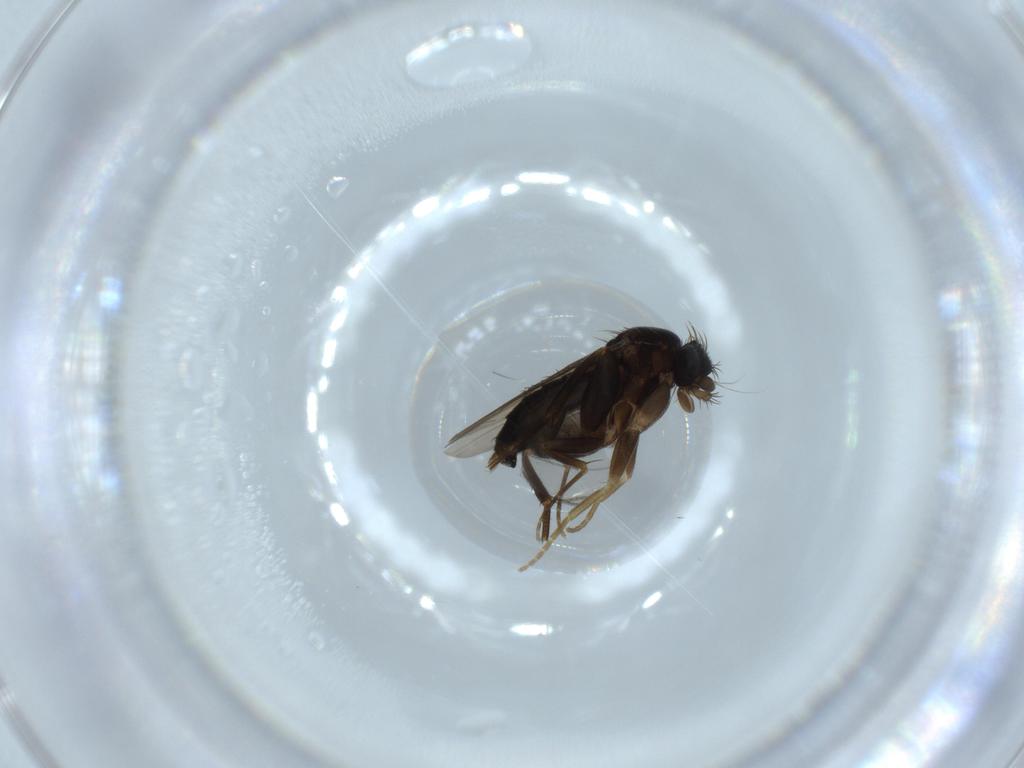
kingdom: Animalia
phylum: Arthropoda
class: Insecta
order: Diptera
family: Phoridae
